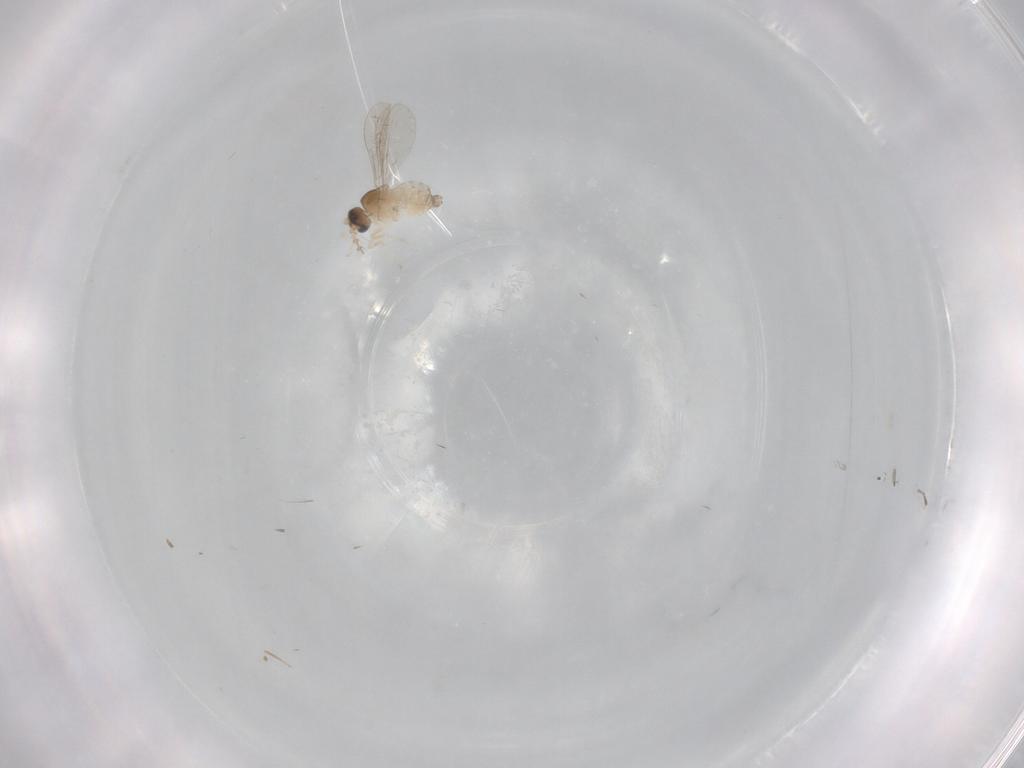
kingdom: Animalia
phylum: Arthropoda
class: Insecta
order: Diptera
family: Cecidomyiidae
